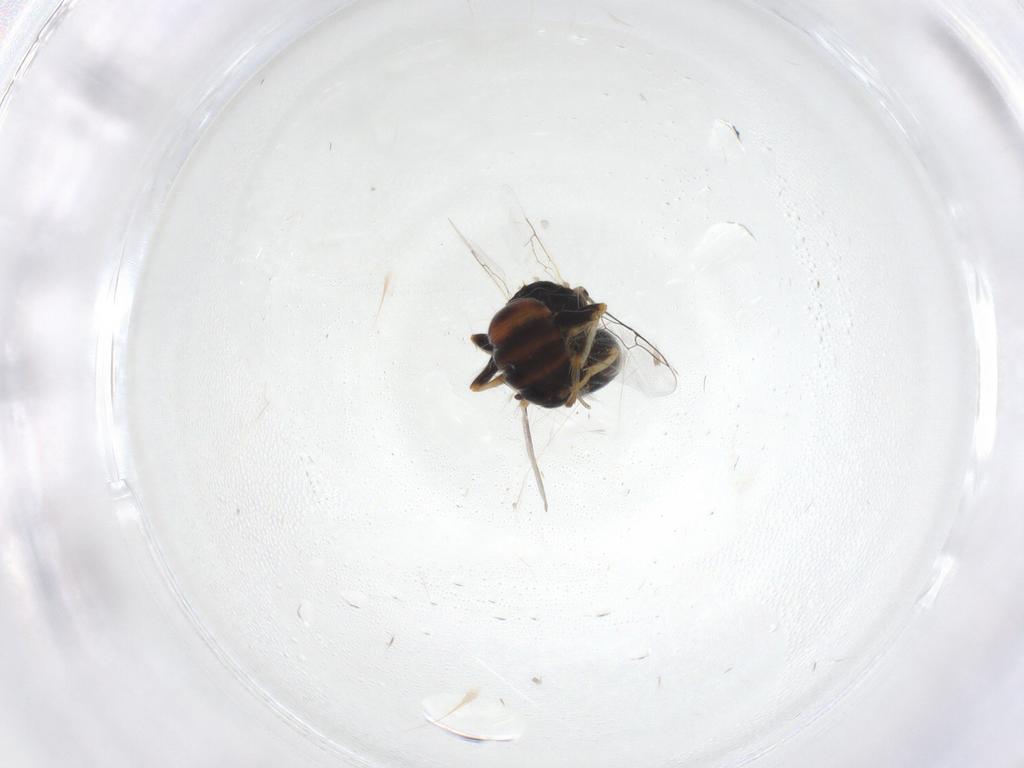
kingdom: Animalia
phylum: Arthropoda
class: Insecta
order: Hymenoptera
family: Crabronidae
